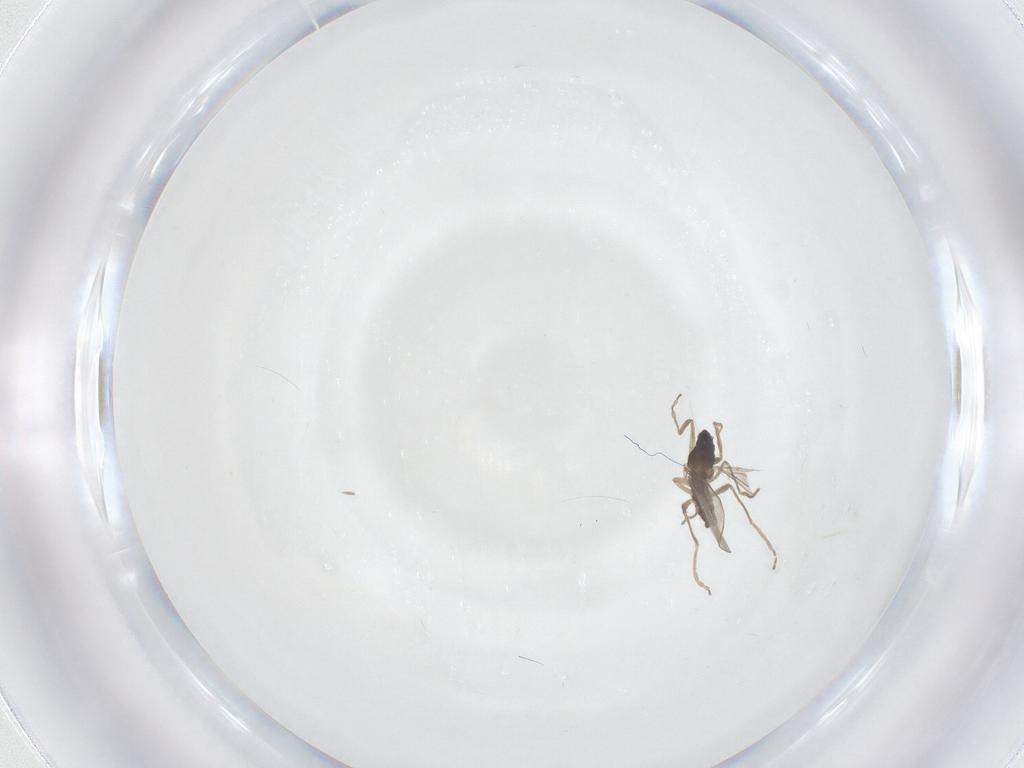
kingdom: Animalia
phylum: Arthropoda
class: Insecta
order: Diptera
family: Cecidomyiidae
